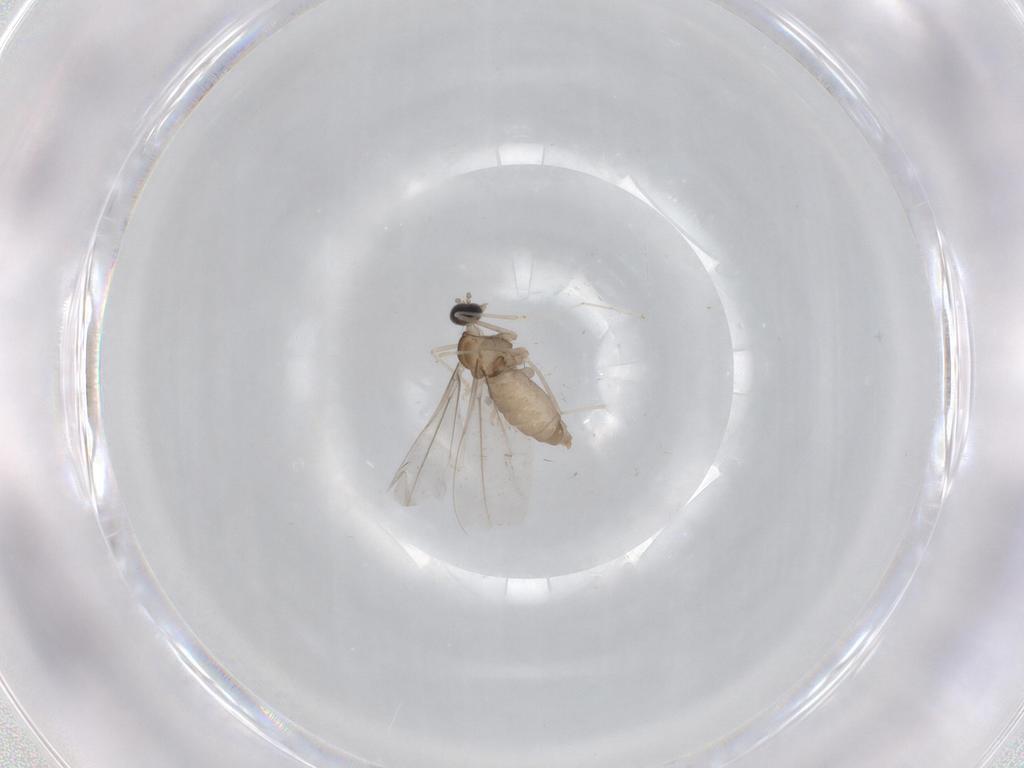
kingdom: Animalia
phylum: Arthropoda
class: Insecta
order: Diptera
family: Cecidomyiidae
